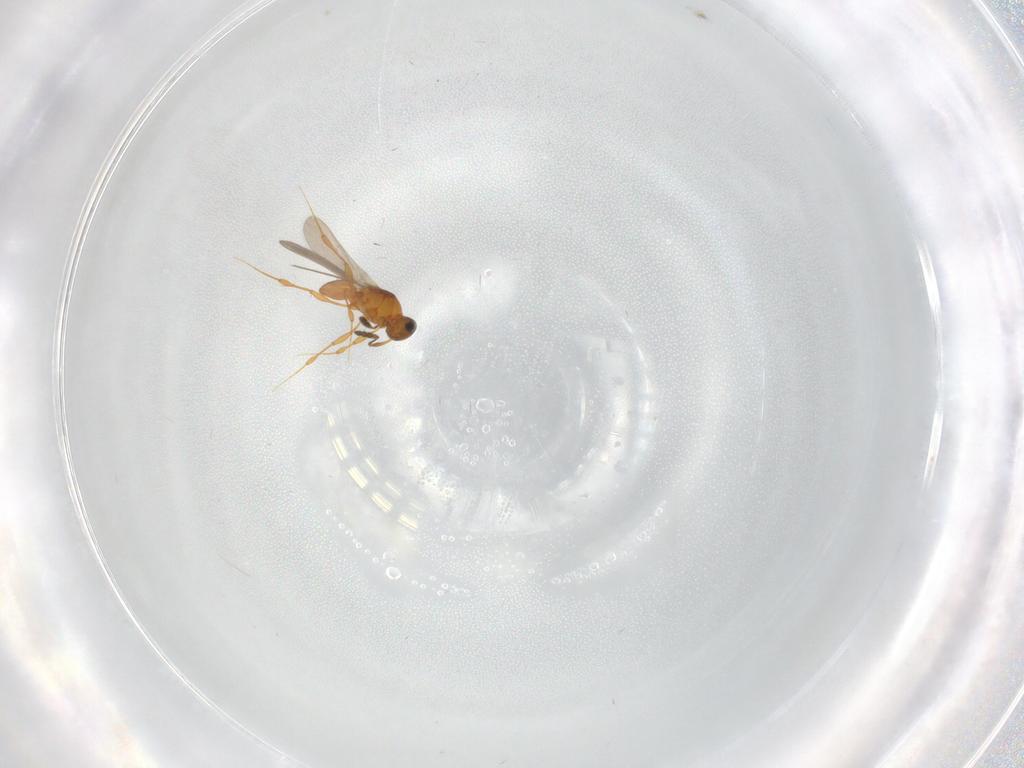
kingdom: Animalia
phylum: Arthropoda
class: Insecta
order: Hymenoptera
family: Platygastridae
